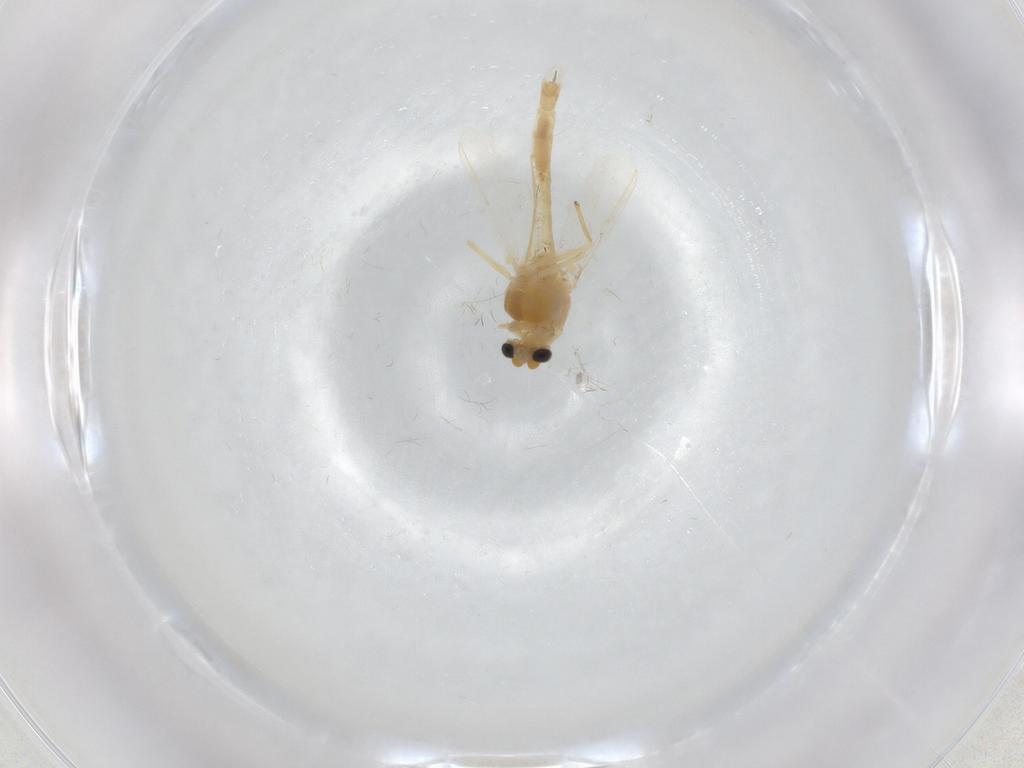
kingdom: Animalia
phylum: Arthropoda
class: Insecta
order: Diptera
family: Chironomidae
